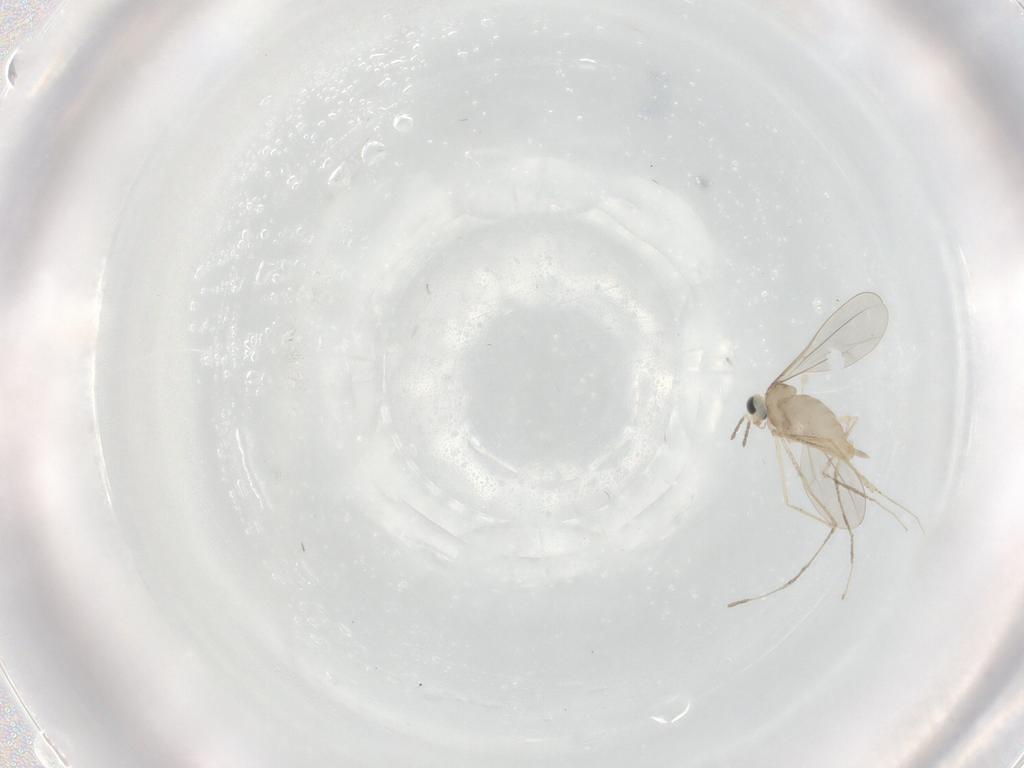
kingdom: Animalia
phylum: Arthropoda
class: Insecta
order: Diptera
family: Cecidomyiidae
